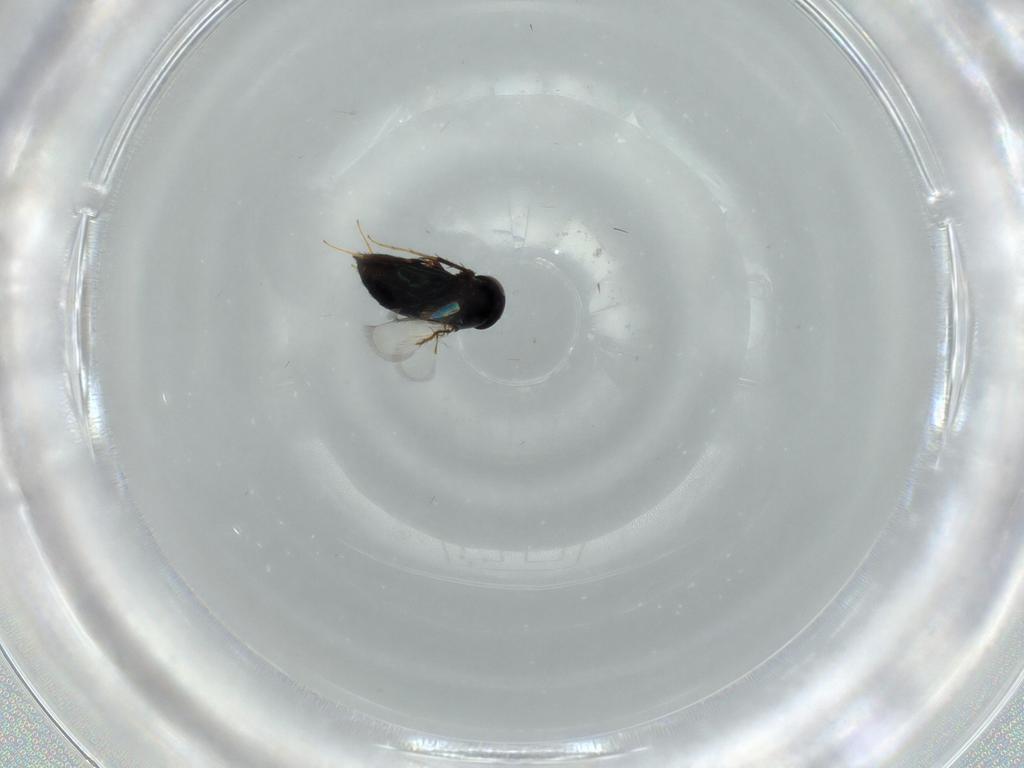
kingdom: Animalia
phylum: Arthropoda
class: Insecta
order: Hymenoptera
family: Signiphoridae
